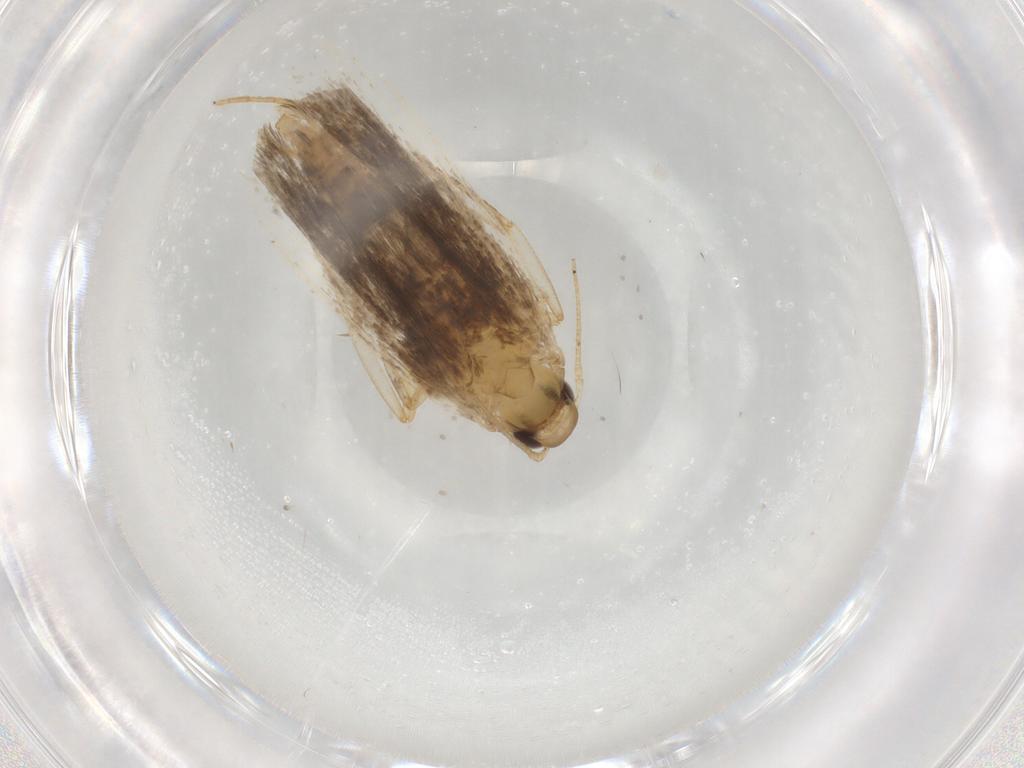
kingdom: Animalia
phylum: Arthropoda
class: Insecta
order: Lepidoptera
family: Gelechiidae
